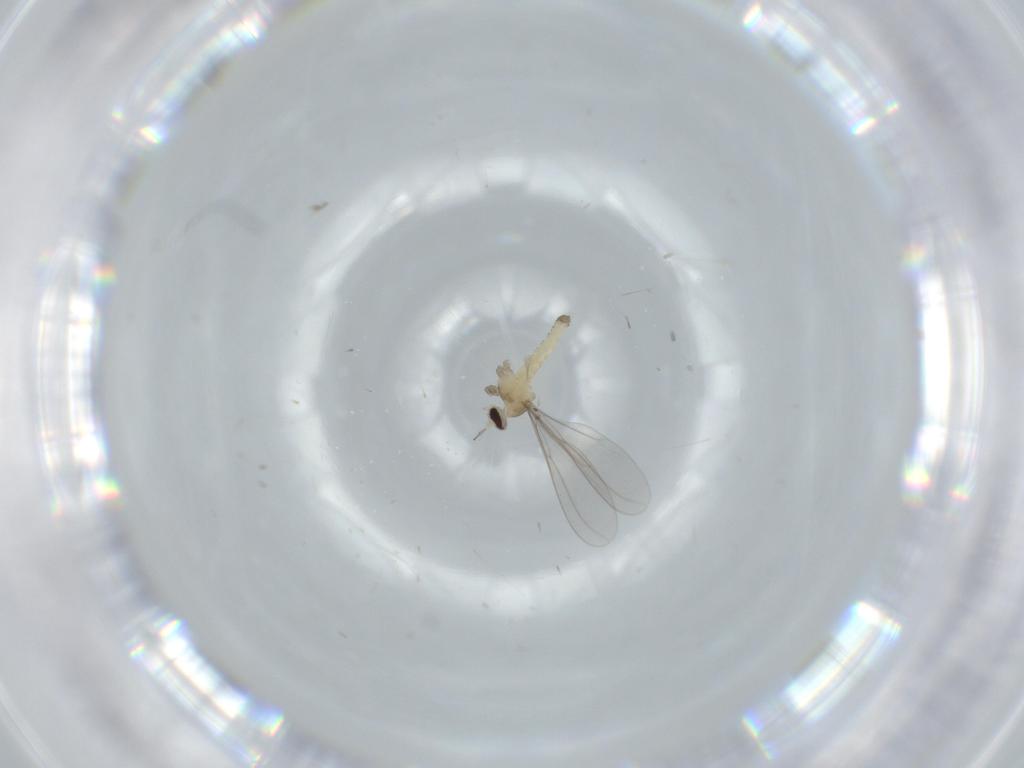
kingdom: Animalia
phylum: Arthropoda
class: Insecta
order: Diptera
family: Cecidomyiidae
